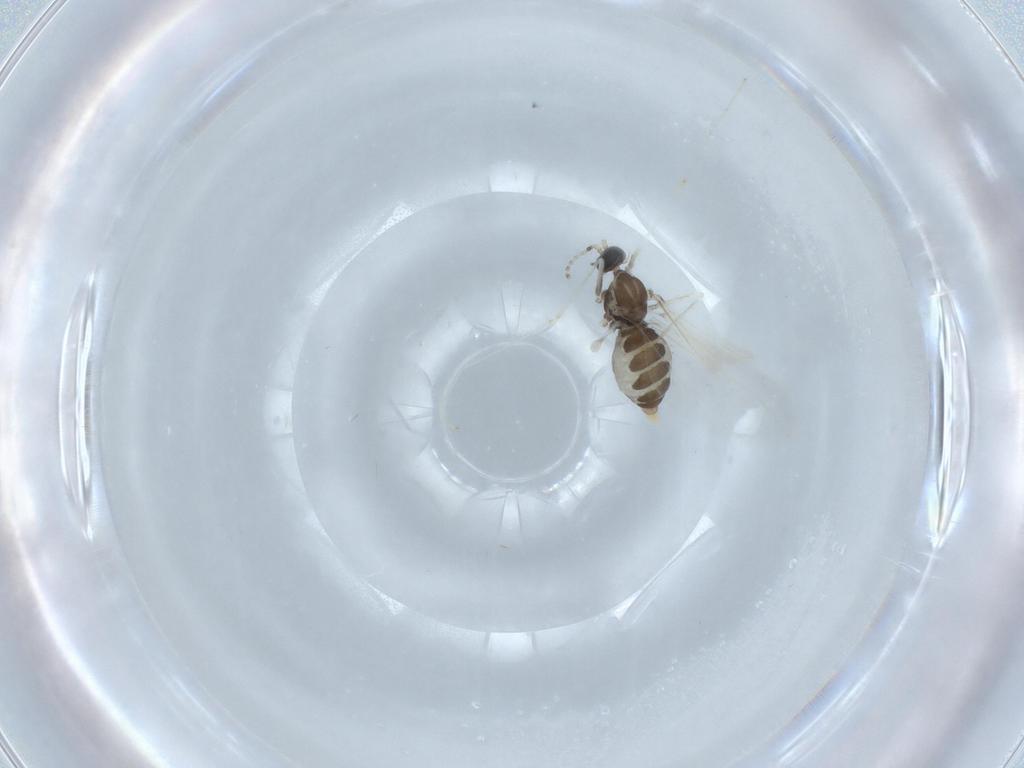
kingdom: Animalia
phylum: Arthropoda
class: Insecta
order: Diptera
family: Cecidomyiidae
